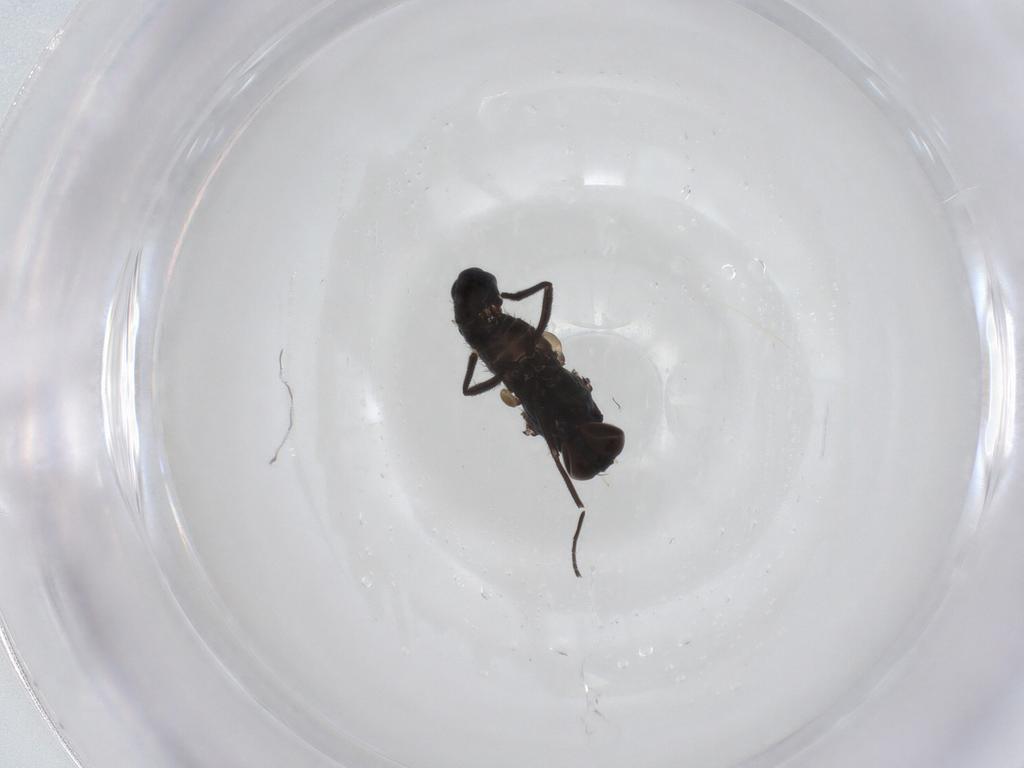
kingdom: Animalia
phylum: Arthropoda
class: Insecta
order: Diptera
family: Dolichopodidae
